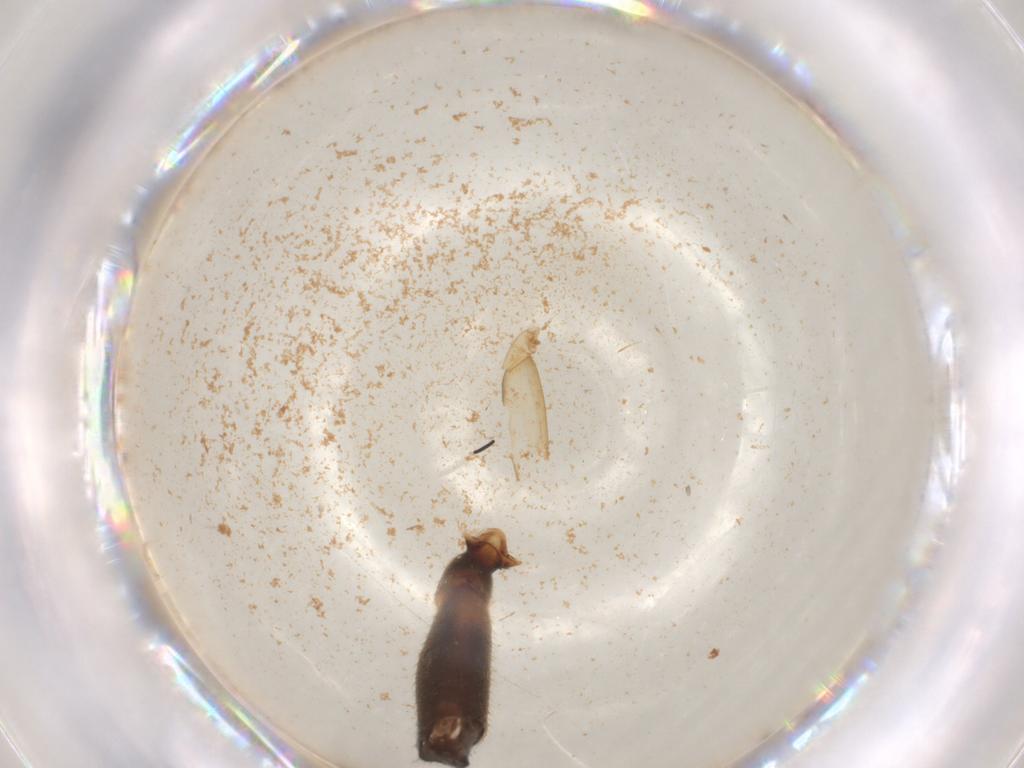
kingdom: Animalia
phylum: Arthropoda
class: Insecta
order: Hymenoptera
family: Vespidae
